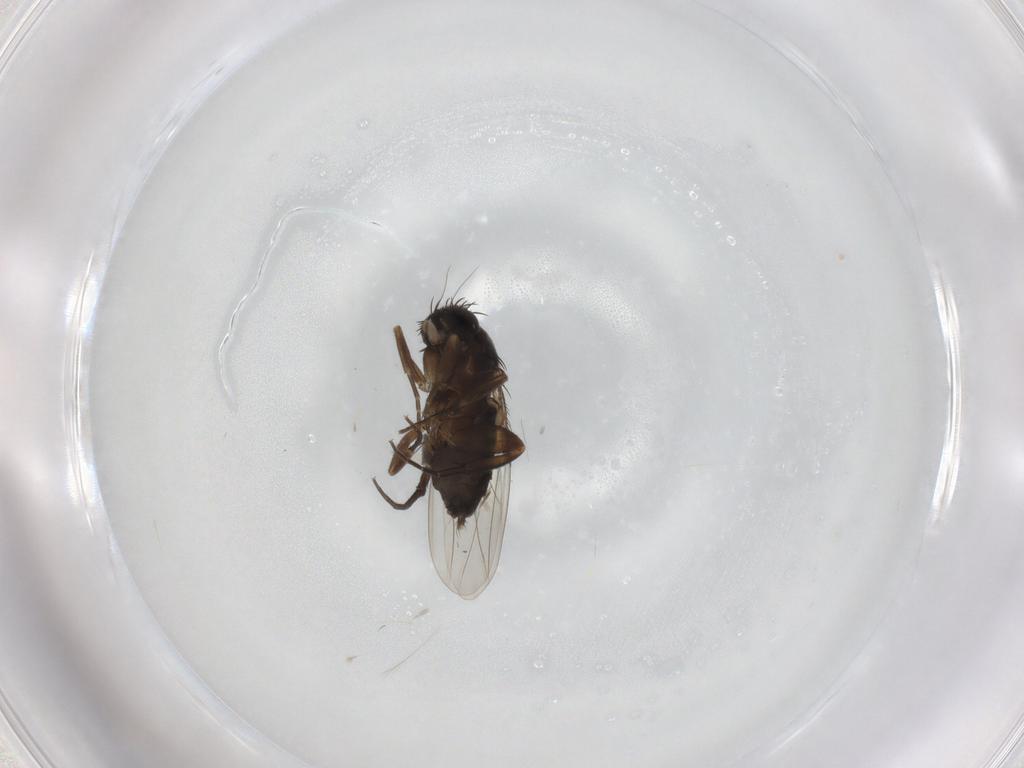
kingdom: Animalia
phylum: Arthropoda
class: Insecta
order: Diptera
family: Phoridae
